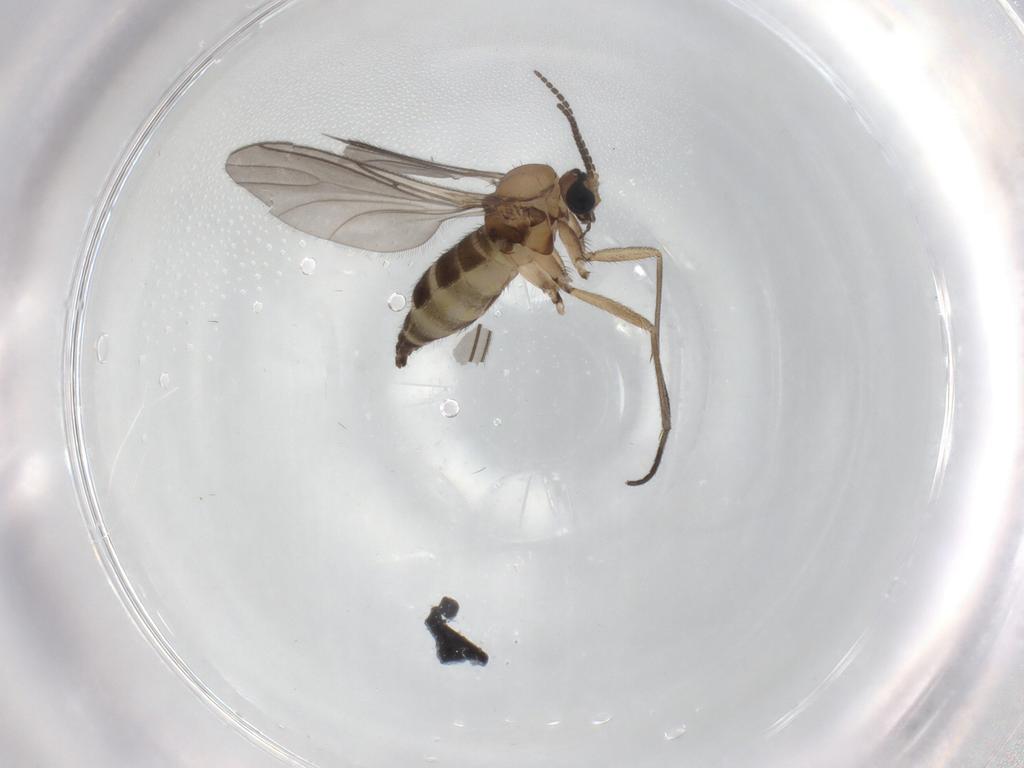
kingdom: Animalia
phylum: Arthropoda
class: Insecta
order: Diptera
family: Sciaridae
